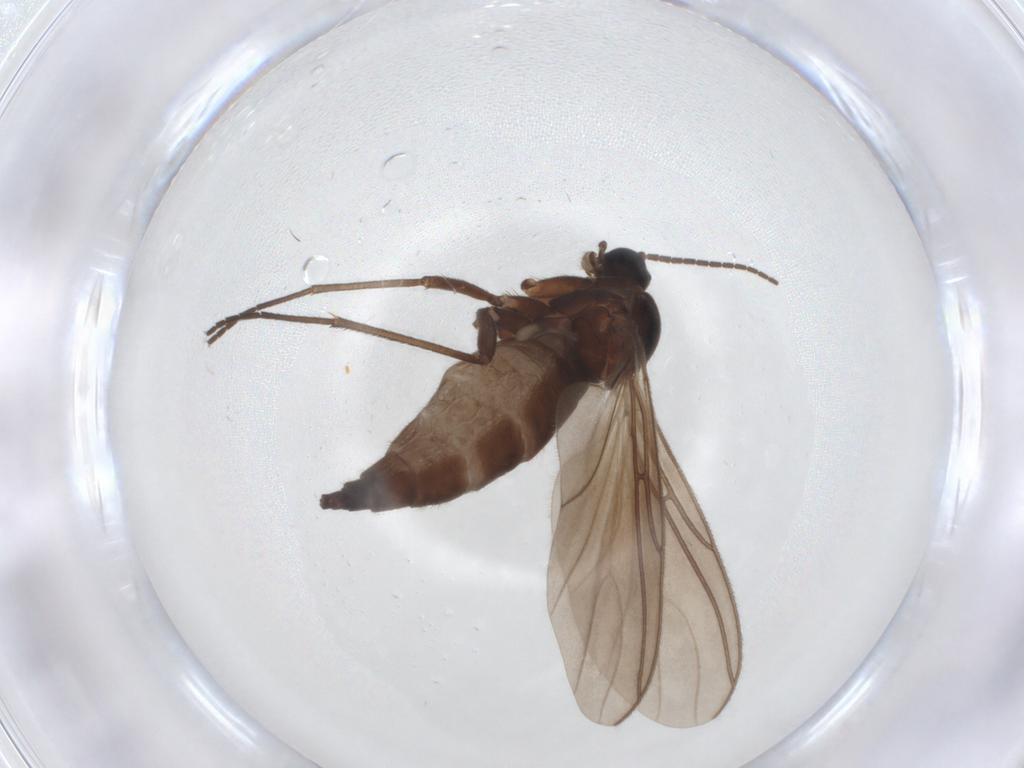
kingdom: Animalia
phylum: Arthropoda
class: Insecta
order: Diptera
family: Sciaridae
